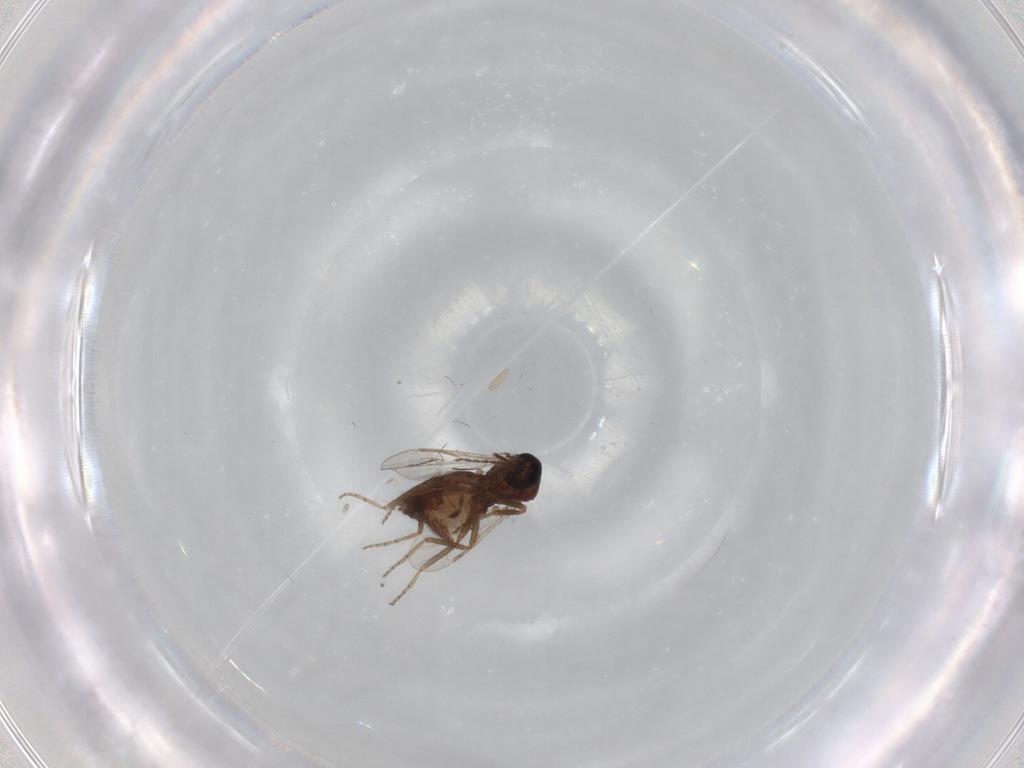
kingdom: Animalia
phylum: Arthropoda
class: Insecta
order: Diptera
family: Ceratopogonidae
